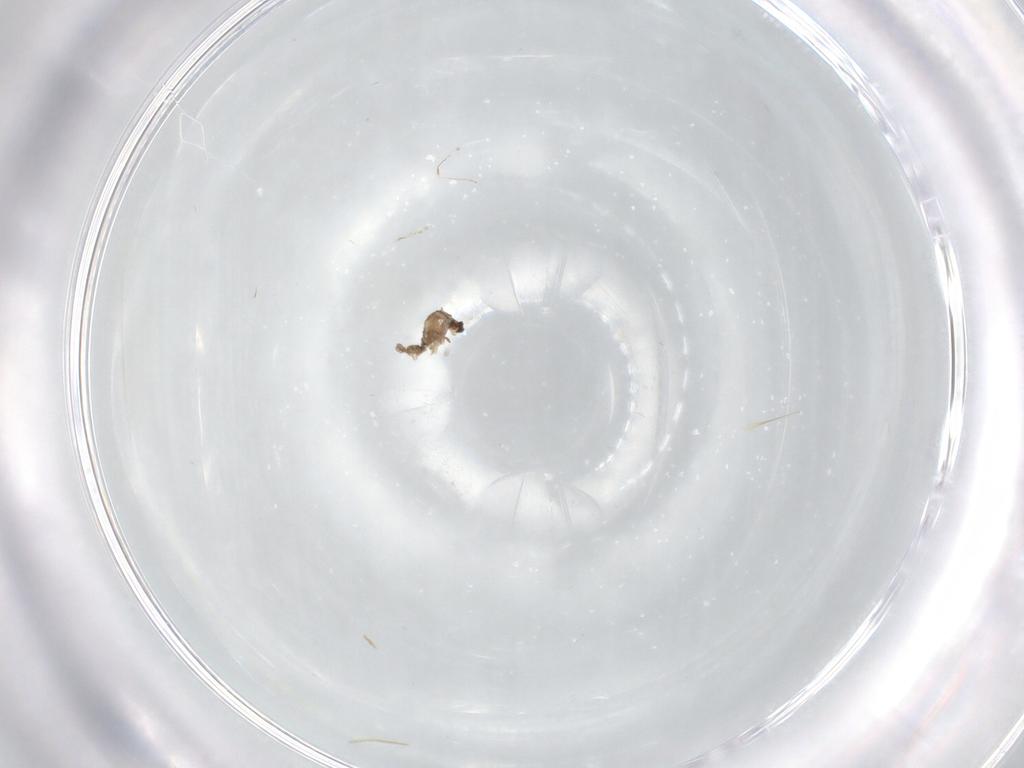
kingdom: Animalia
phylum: Arthropoda
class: Insecta
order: Diptera
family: Cecidomyiidae
